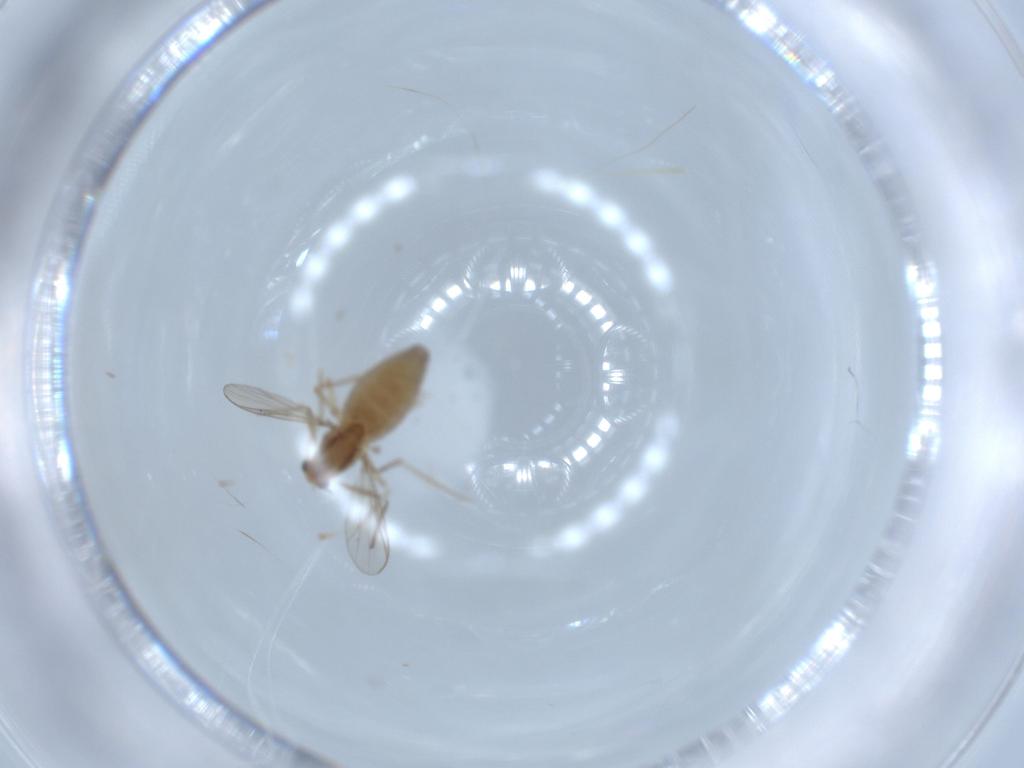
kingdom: Animalia
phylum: Arthropoda
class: Insecta
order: Diptera
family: Chironomidae
